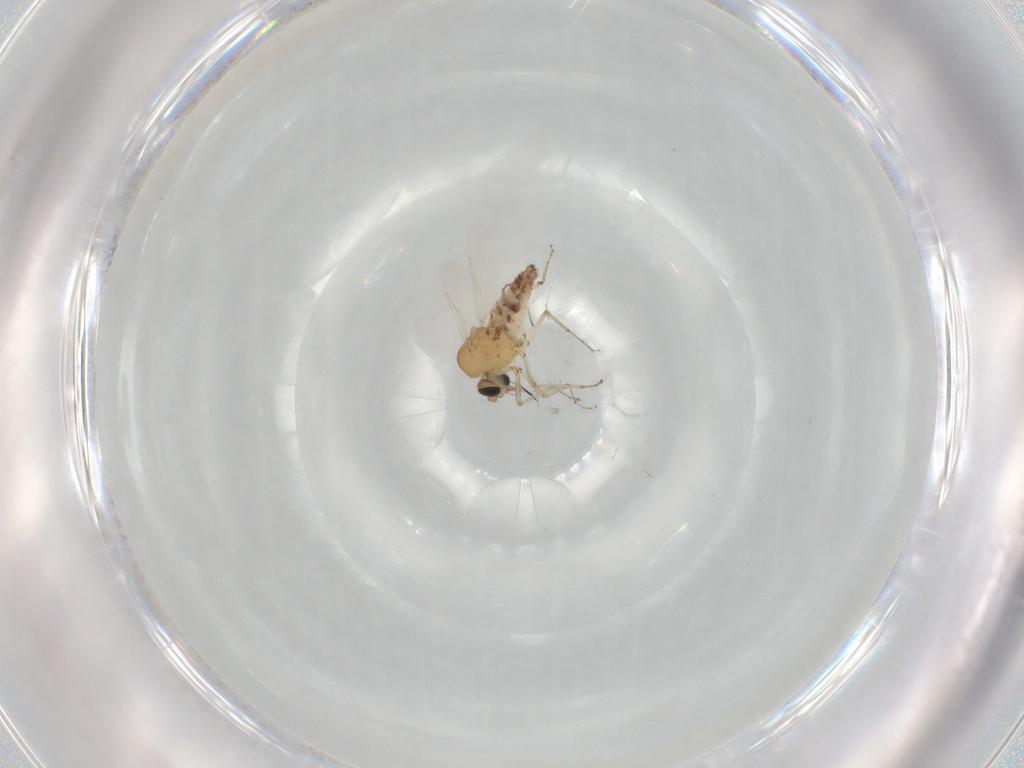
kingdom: Animalia
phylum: Arthropoda
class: Insecta
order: Diptera
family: Ceratopogonidae
